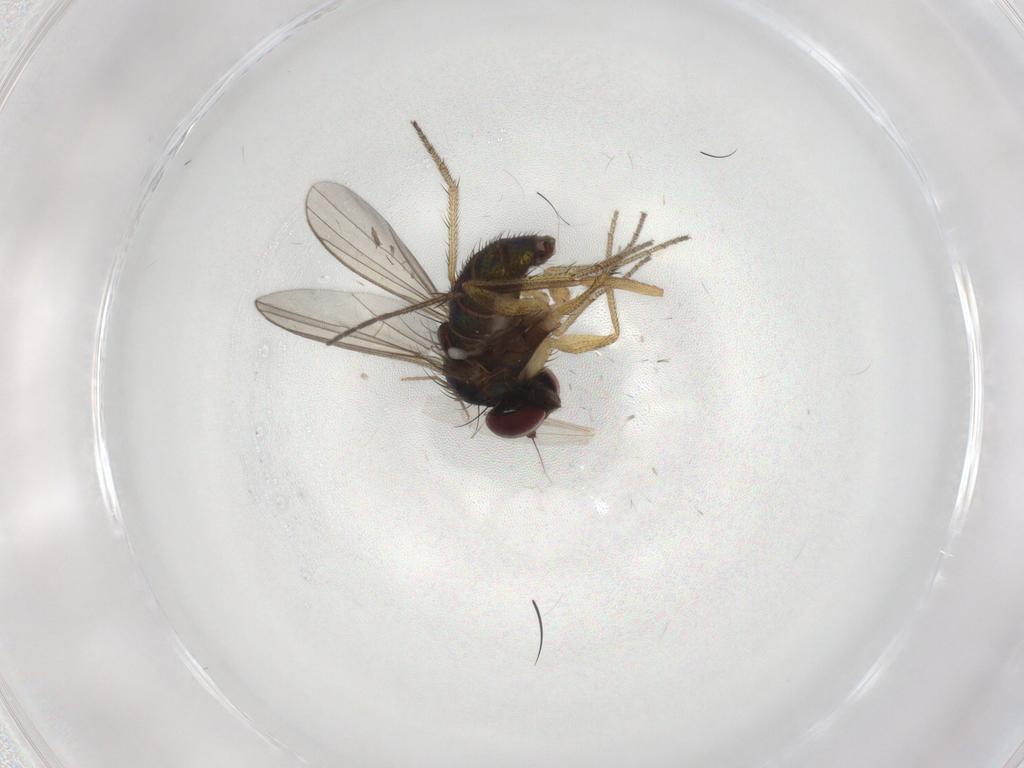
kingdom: Animalia
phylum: Arthropoda
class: Insecta
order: Diptera
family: Sciaridae
